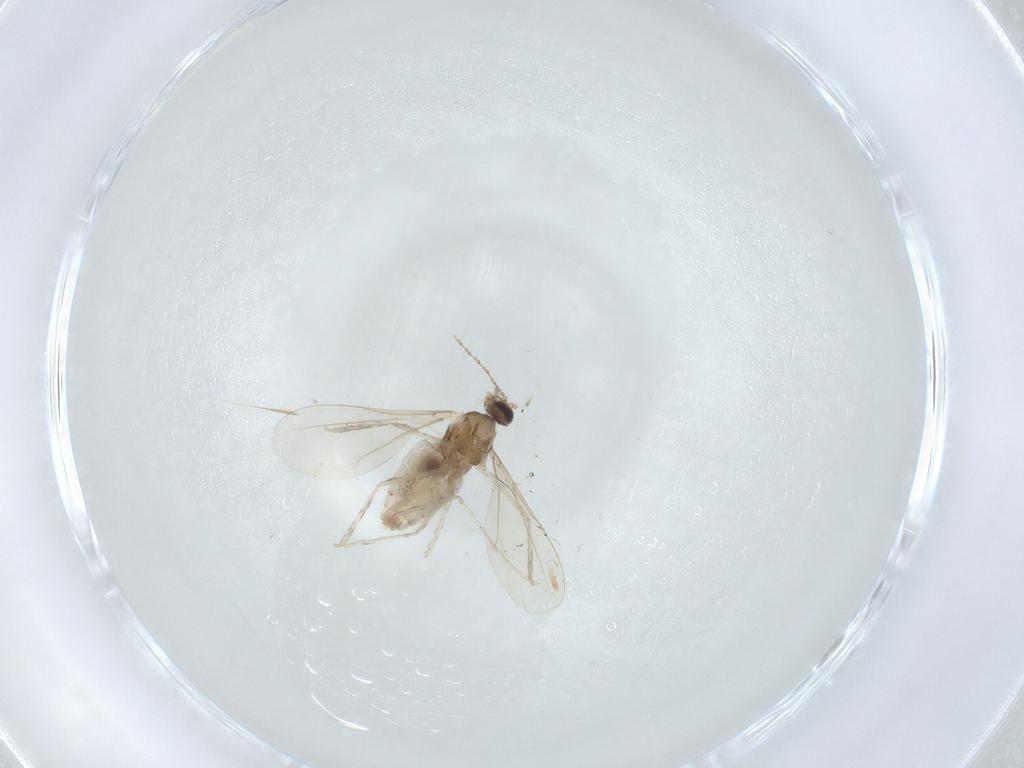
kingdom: Animalia
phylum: Arthropoda
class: Insecta
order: Diptera
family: Cecidomyiidae
